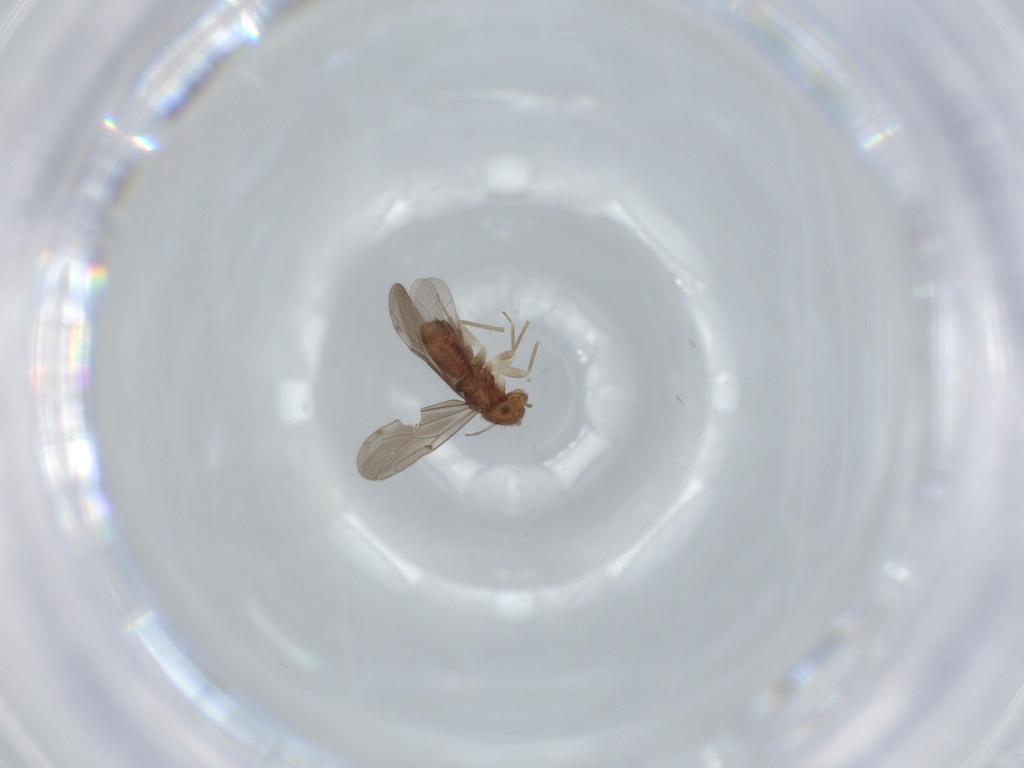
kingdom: Animalia
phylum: Arthropoda
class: Insecta
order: Psocodea
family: Ectopsocidae
